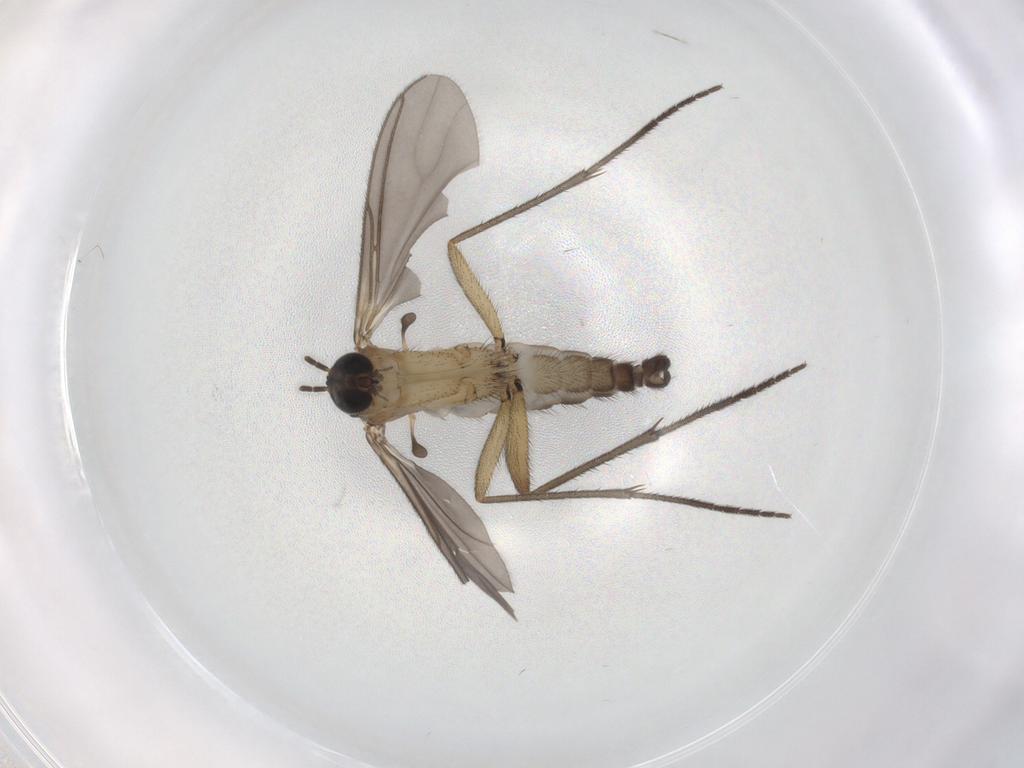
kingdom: Animalia
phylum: Arthropoda
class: Insecta
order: Diptera
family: Sciaridae
